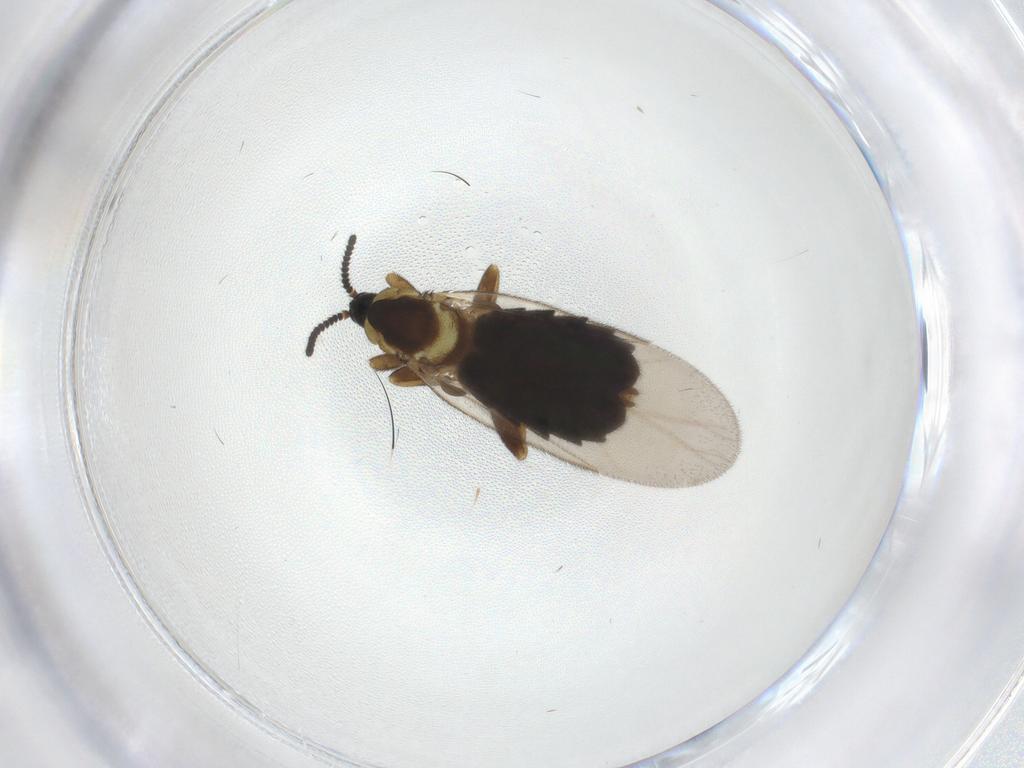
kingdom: Animalia
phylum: Arthropoda
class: Insecta
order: Diptera
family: Scatopsidae
